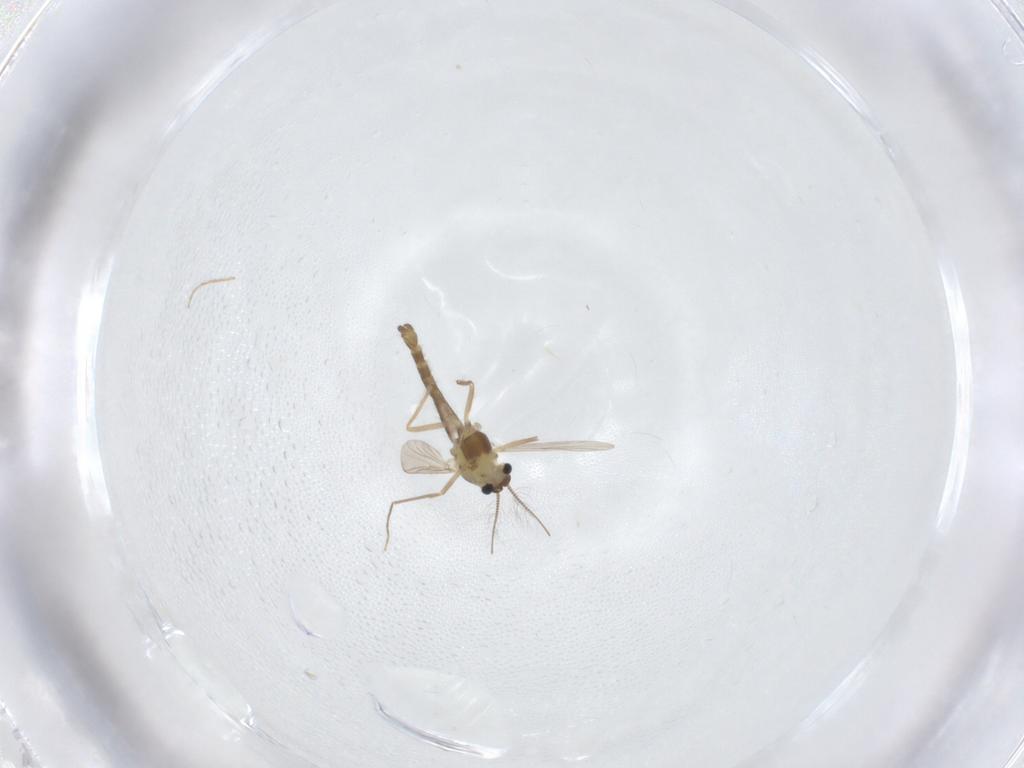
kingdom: Animalia
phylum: Arthropoda
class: Insecta
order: Diptera
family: Chironomidae
